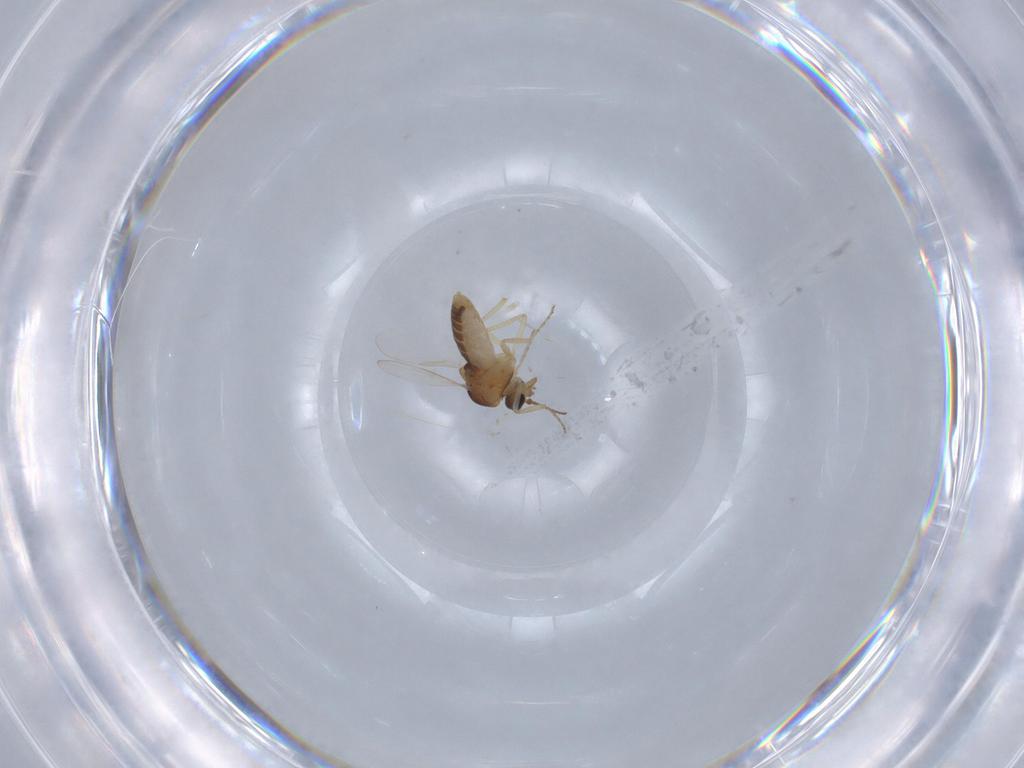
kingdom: Animalia
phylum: Arthropoda
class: Insecta
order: Diptera
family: Ceratopogonidae
